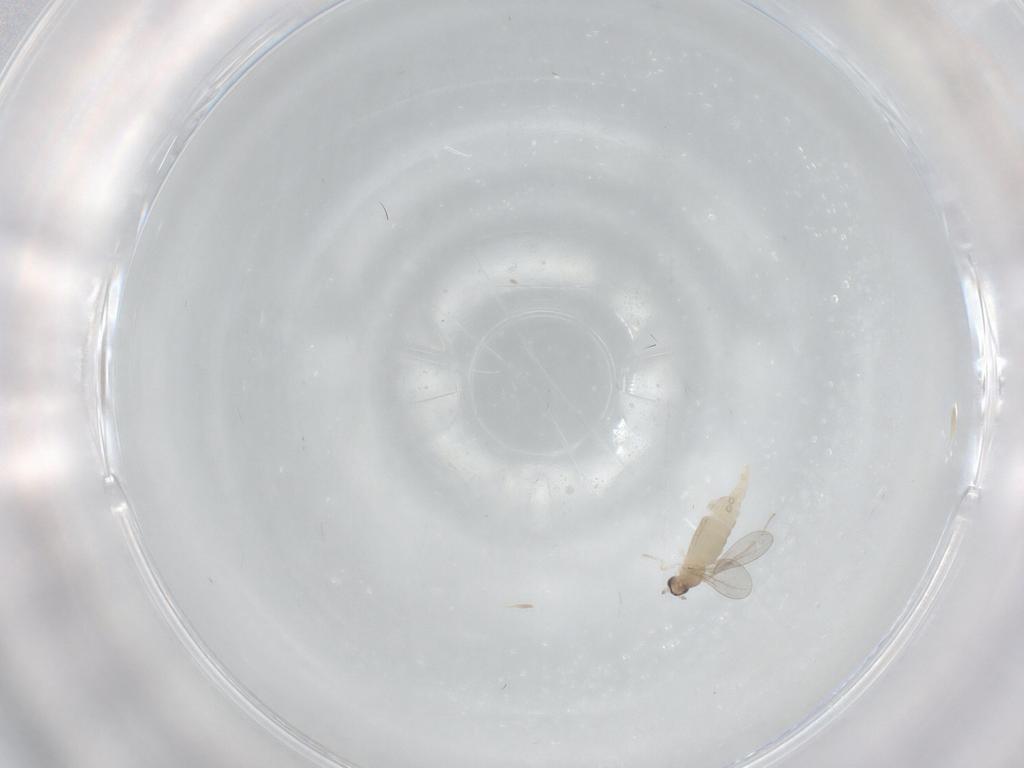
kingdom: Animalia
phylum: Arthropoda
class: Insecta
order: Diptera
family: Cecidomyiidae
